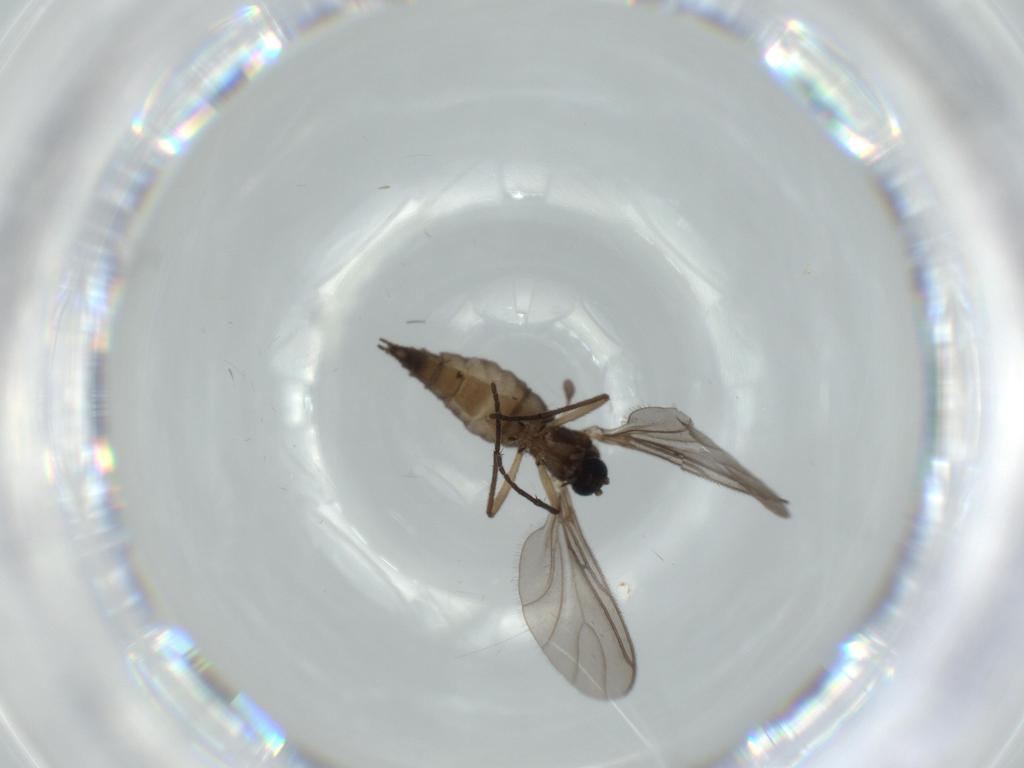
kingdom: Animalia
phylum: Arthropoda
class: Insecta
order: Diptera
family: Sciaridae
